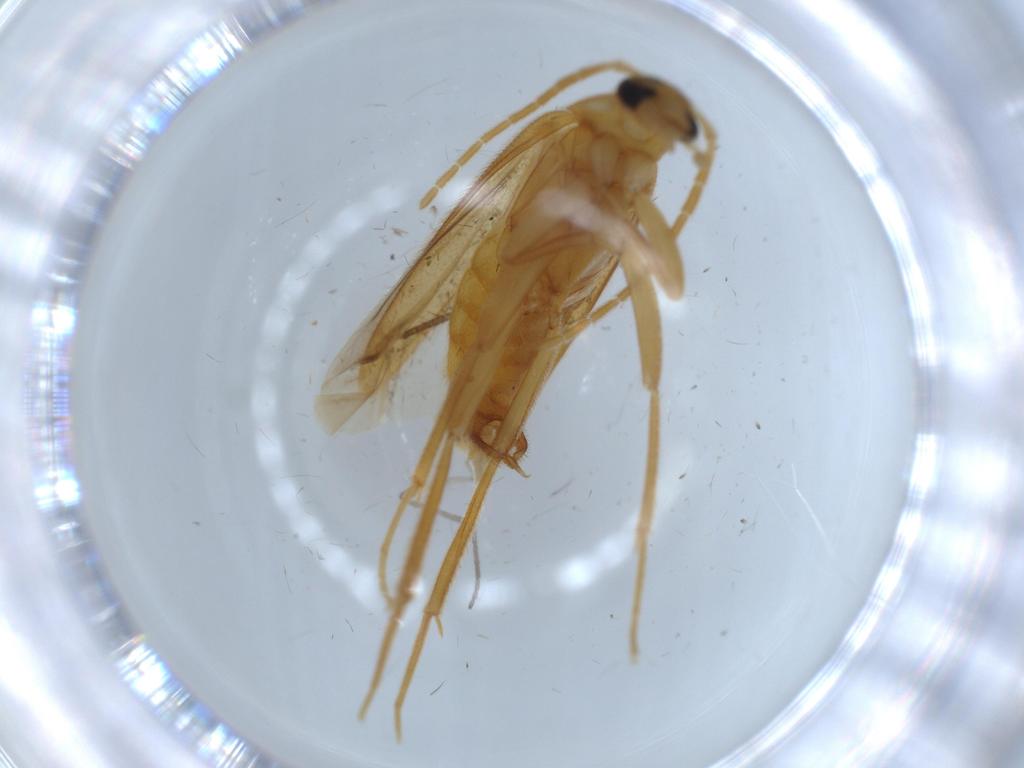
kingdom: Animalia
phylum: Arthropoda
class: Insecta
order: Coleoptera
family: Scraptiidae
